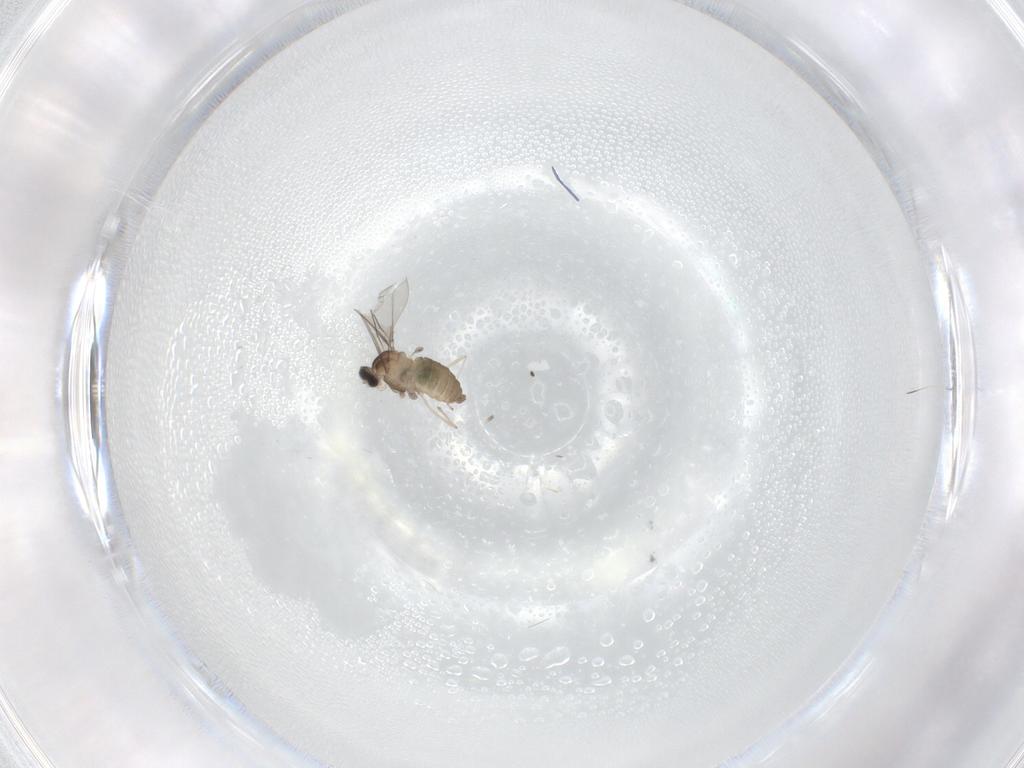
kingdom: Animalia
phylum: Arthropoda
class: Insecta
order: Diptera
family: Cecidomyiidae
